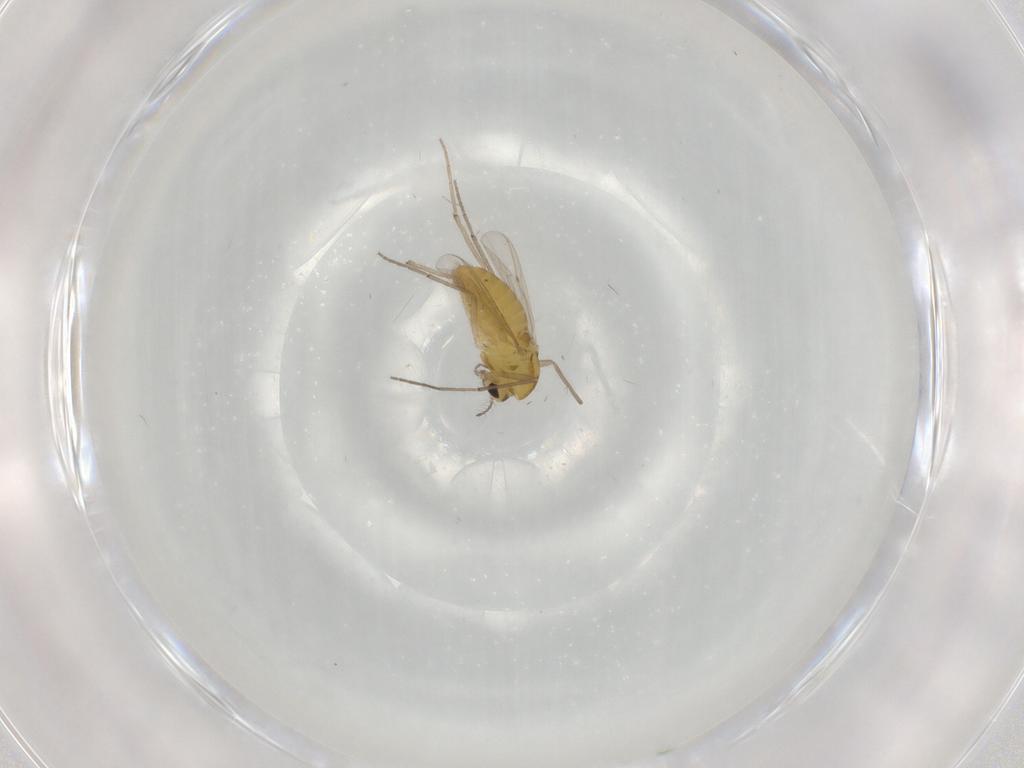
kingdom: Animalia
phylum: Arthropoda
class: Insecta
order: Diptera
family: Chironomidae
